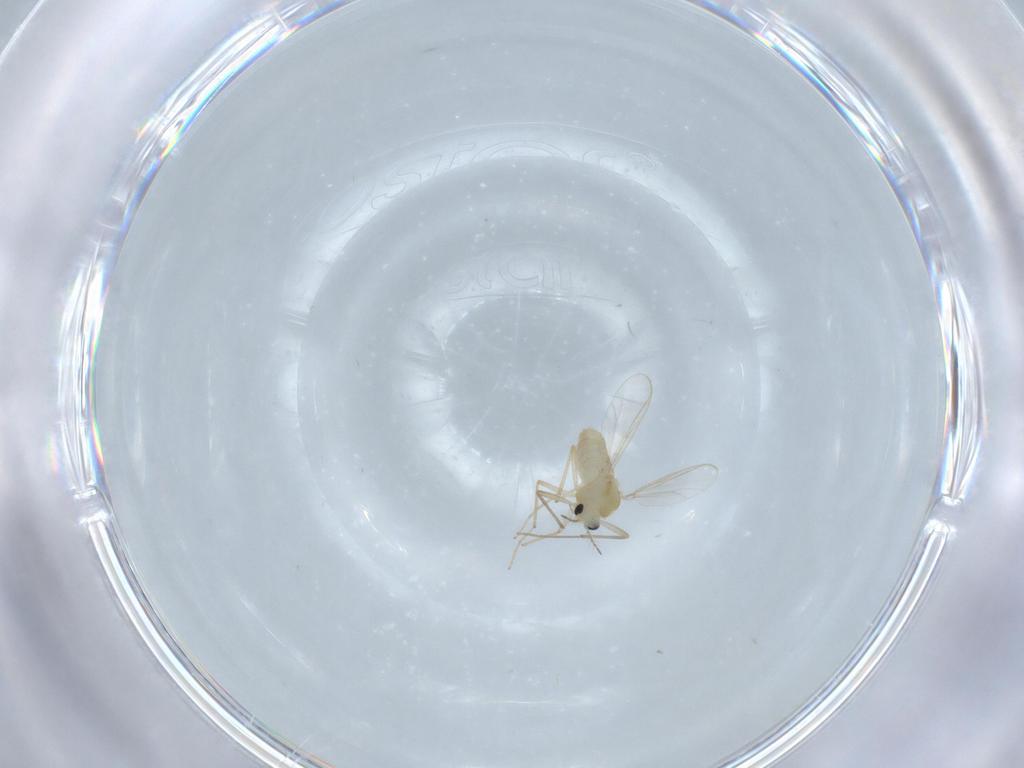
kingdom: Animalia
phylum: Arthropoda
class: Insecta
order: Diptera
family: Chironomidae
